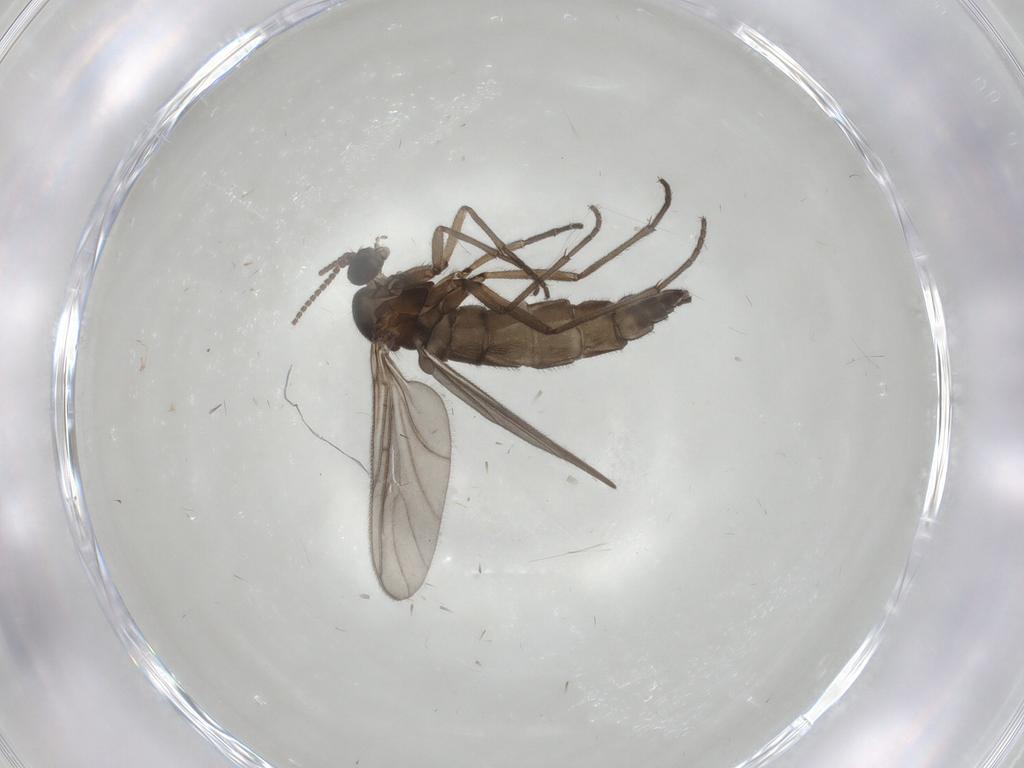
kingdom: Animalia
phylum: Arthropoda
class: Insecta
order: Diptera
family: Sciaridae
